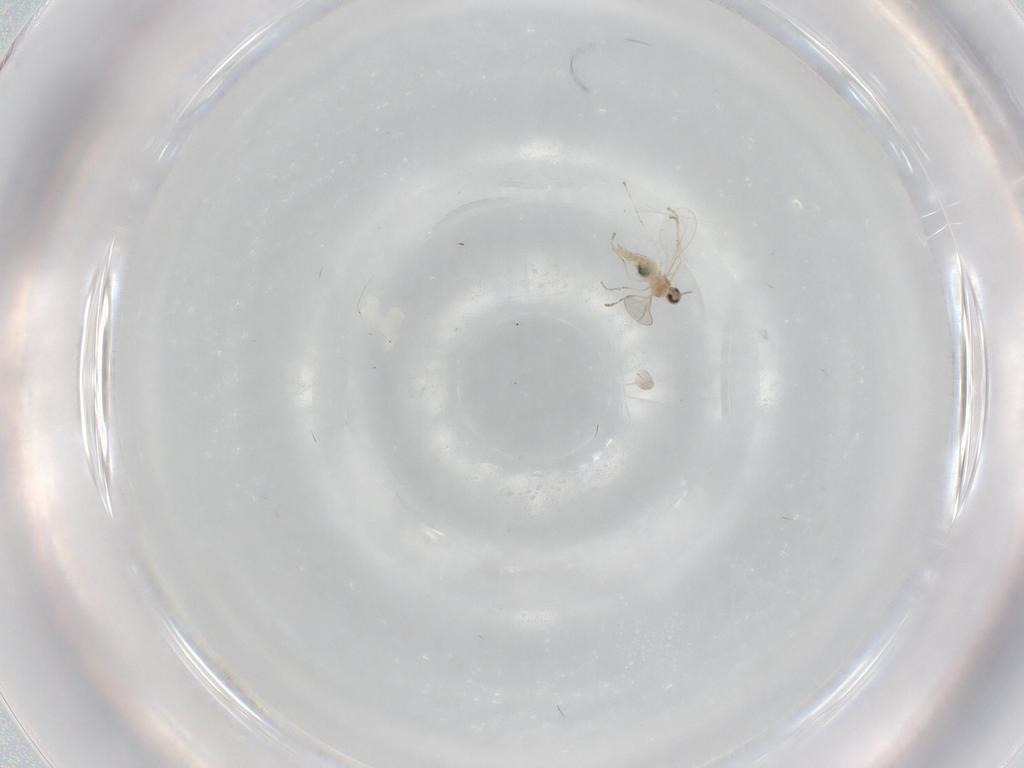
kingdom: Animalia
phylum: Arthropoda
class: Insecta
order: Diptera
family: Cecidomyiidae
